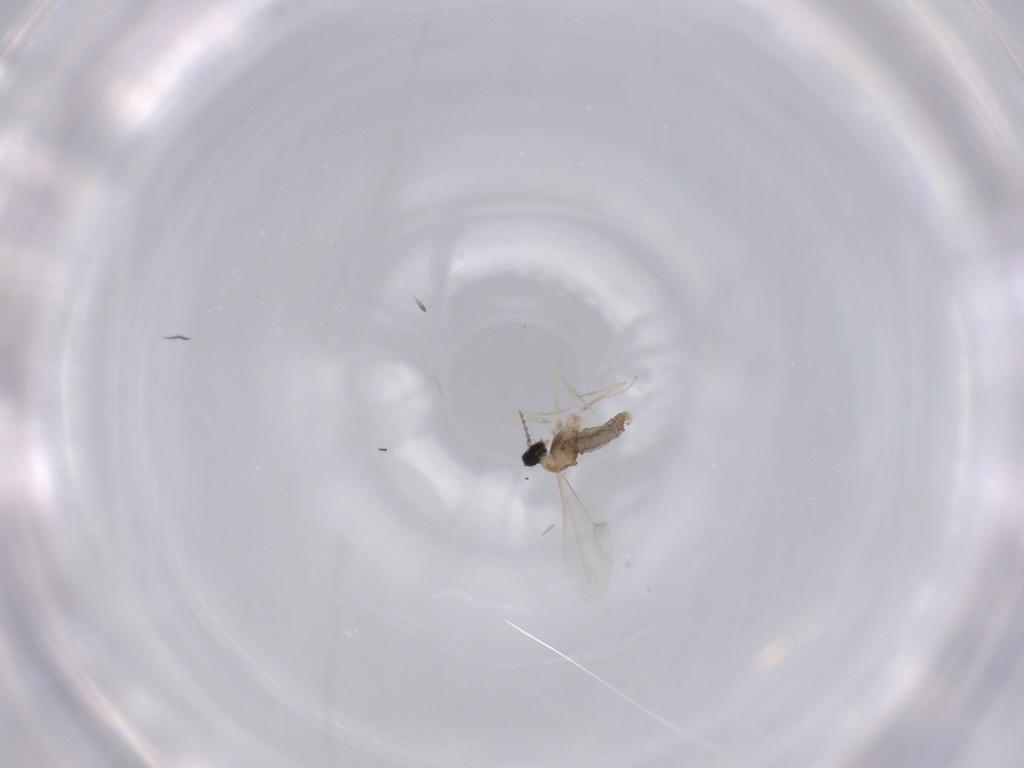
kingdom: Animalia
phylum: Arthropoda
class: Insecta
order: Diptera
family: Cecidomyiidae
